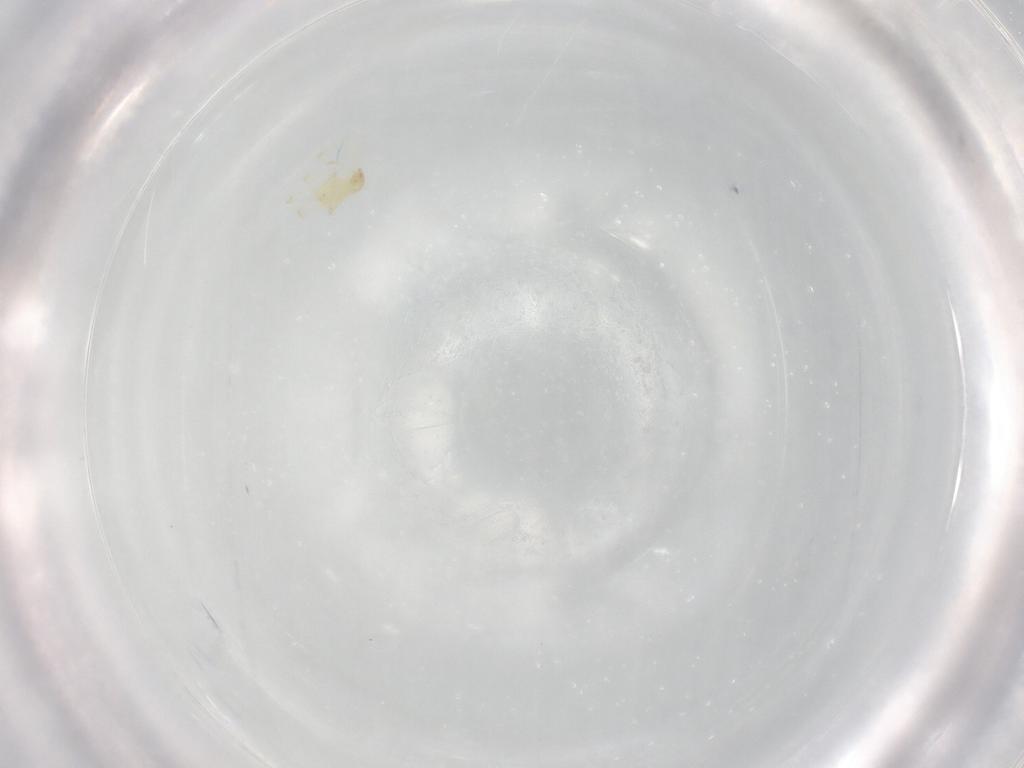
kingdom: Animalia
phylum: Arthropoda
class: Arachnida
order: Trombidiformes
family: Erythraeidae
